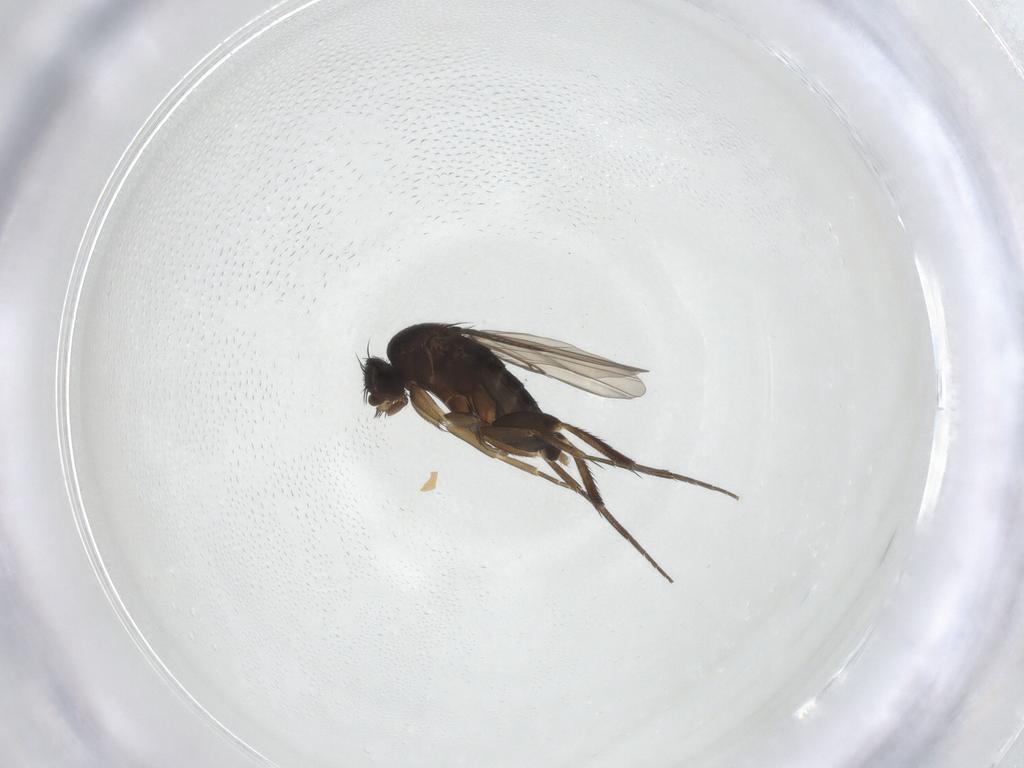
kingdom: Animalia
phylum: Arthropoda
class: Insecta
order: Diptera
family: Phoridae
